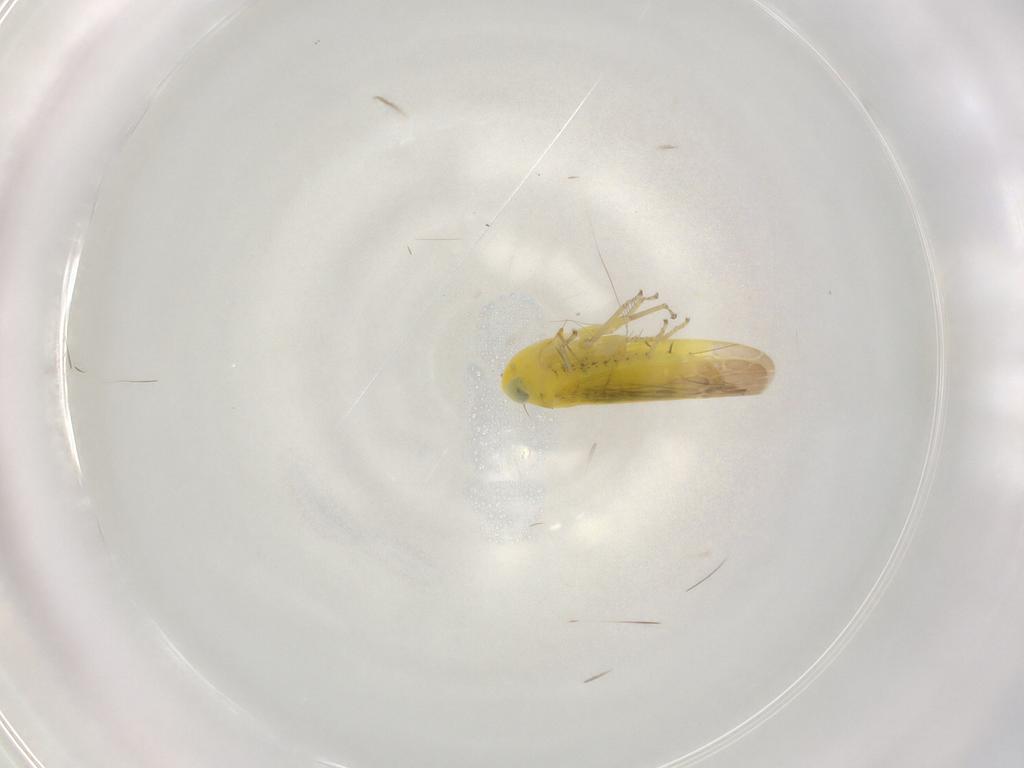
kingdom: Animalia
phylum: Arthropoda
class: Insecta
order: Hemiptera
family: Cicadellidae
